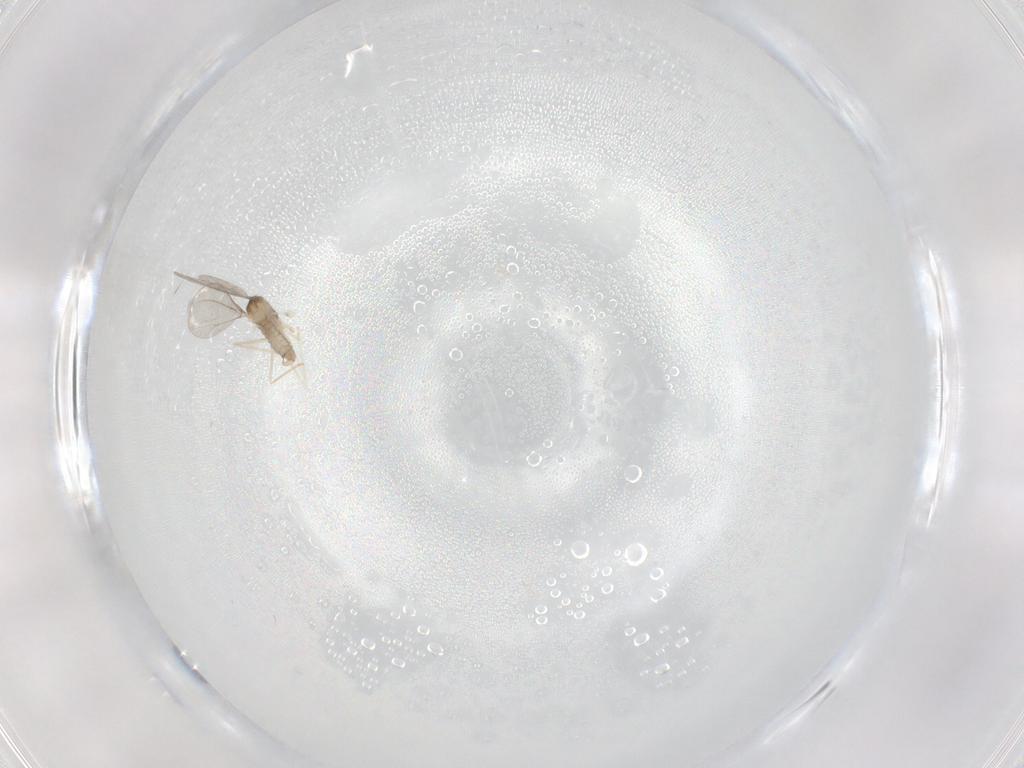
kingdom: Animalia
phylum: Arthropoda
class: Insecta
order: Diptera
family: Cecidomyiidae
